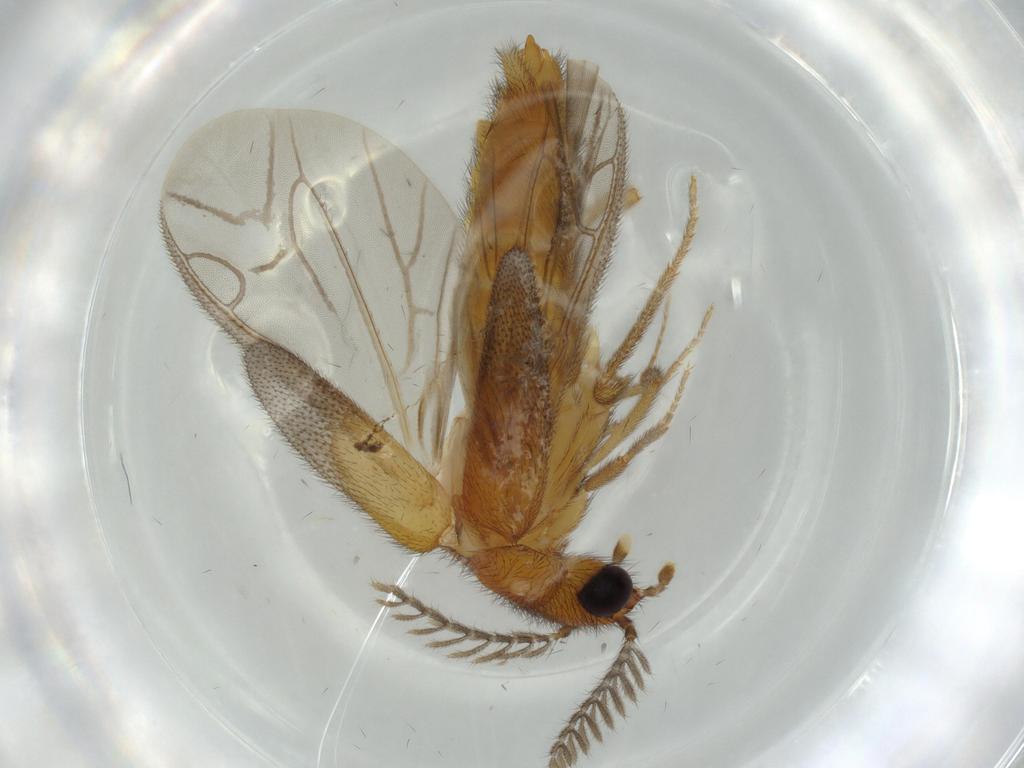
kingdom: Animalia
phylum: Arthropoda
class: Insecta
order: Coleoptera
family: Phengodidae
